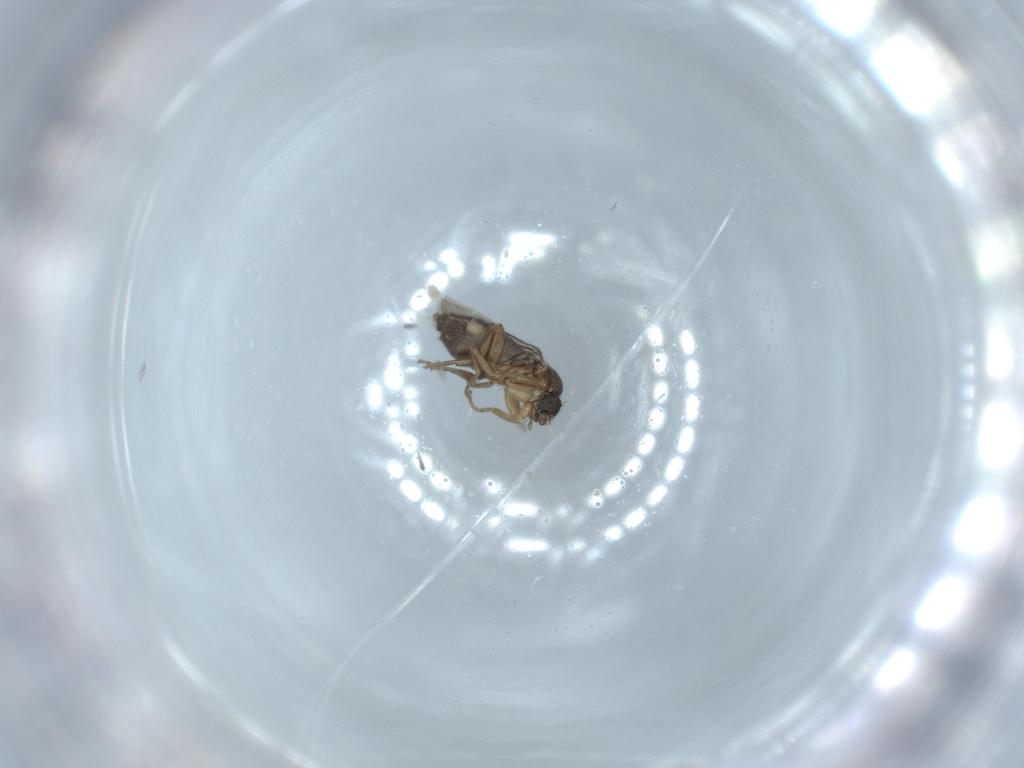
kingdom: Animalia
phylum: Arthropoda
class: Insecta
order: Diptera
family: Phoridae
